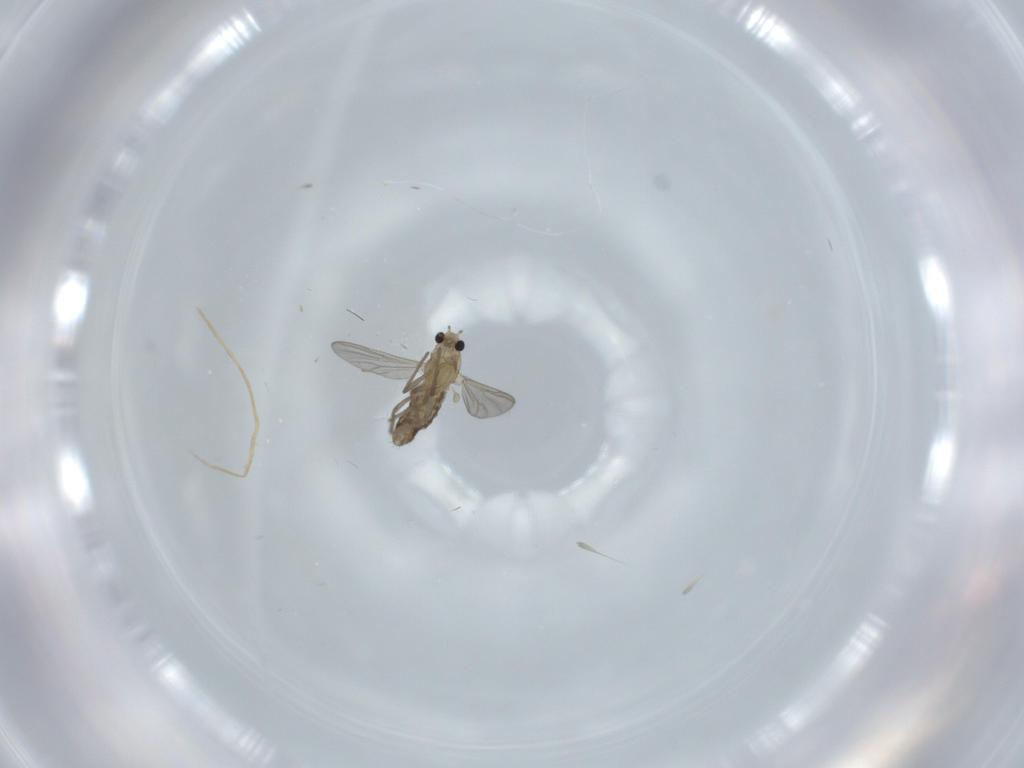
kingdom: Animalia
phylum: Arthropoda
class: Insecta
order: Diptera
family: Chironomidae
